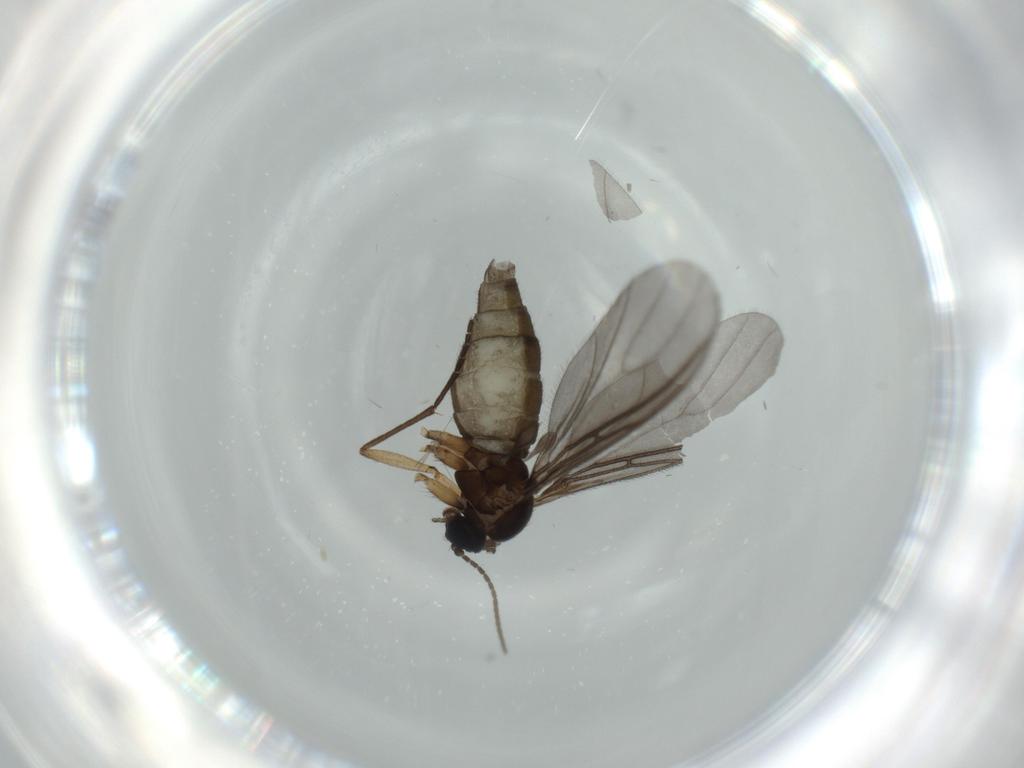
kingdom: Animalia
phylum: Arthropoda
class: Insecta
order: Diptera
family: Sciaridae
